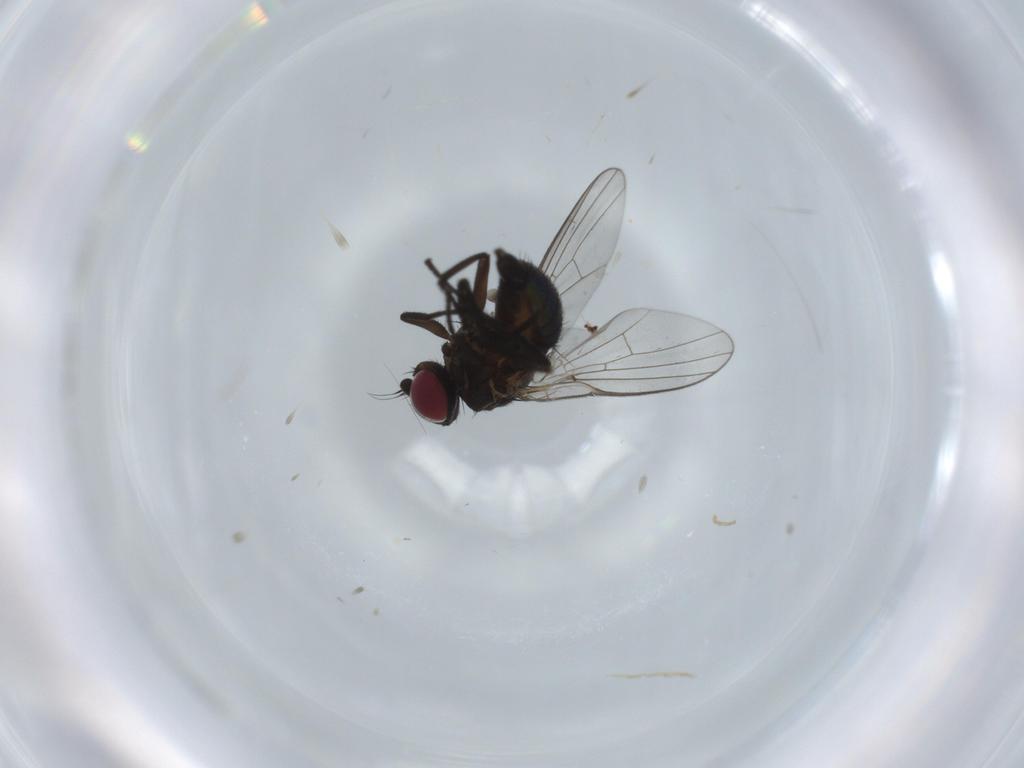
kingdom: Animalia
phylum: Arthropoda
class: Insecta
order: Diptera
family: Agromyzidae
